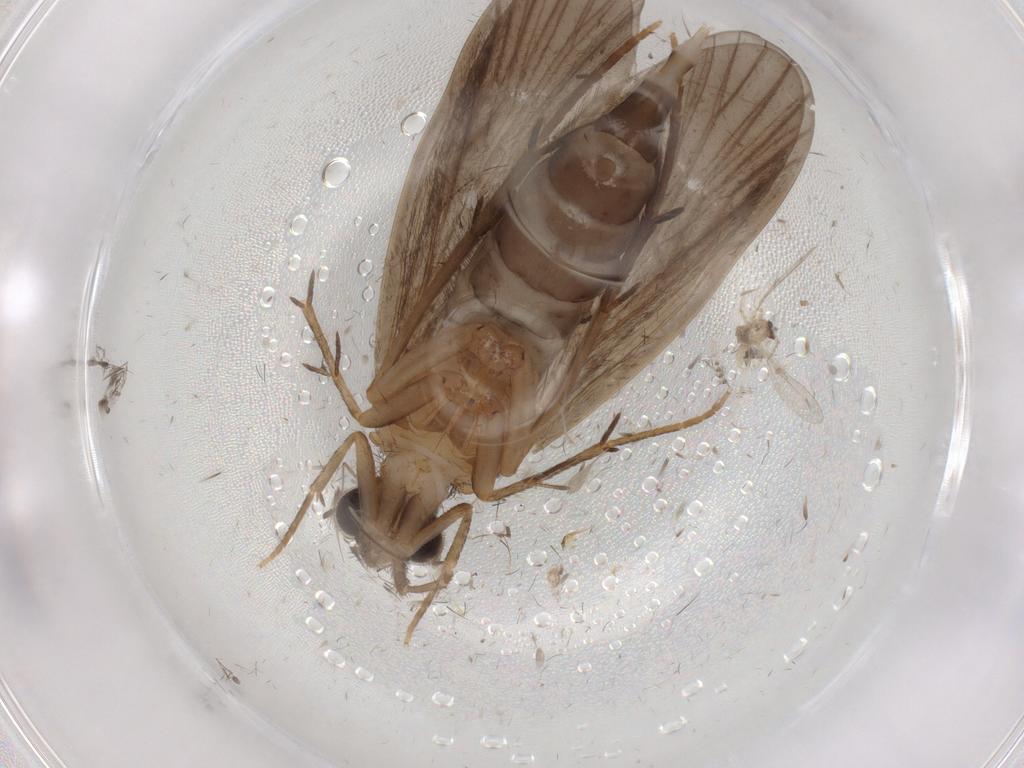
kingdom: Animalia
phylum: Arthropoda
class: Insecta
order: Trichoptera
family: Philopotamidae
